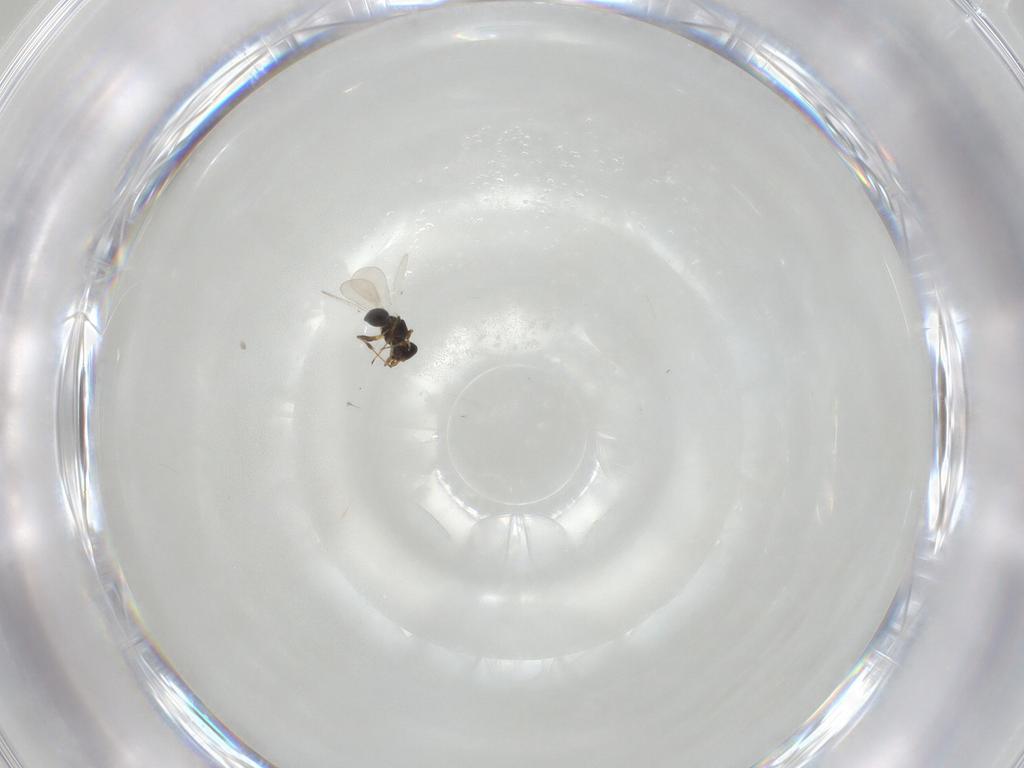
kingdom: Animalia
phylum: Arthropoda
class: Insecta
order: Hymenoptera
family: Platygastridae
